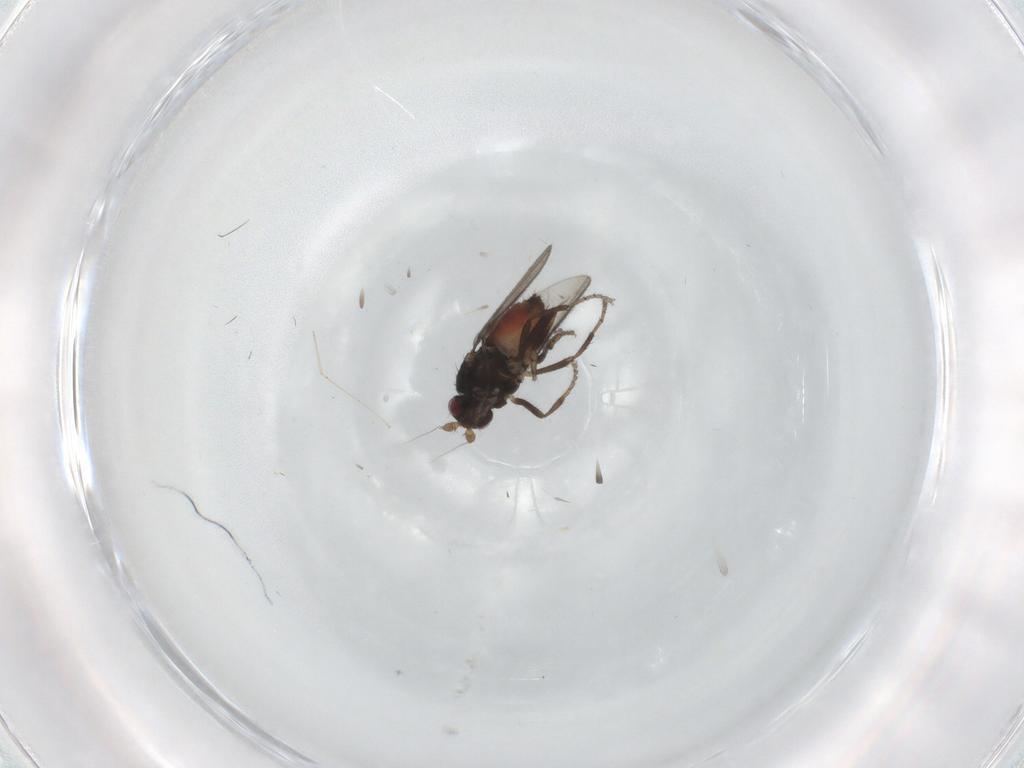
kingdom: Animalia
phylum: Arthropoda
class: Insecta
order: Diptera
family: Sphaeroceridae
